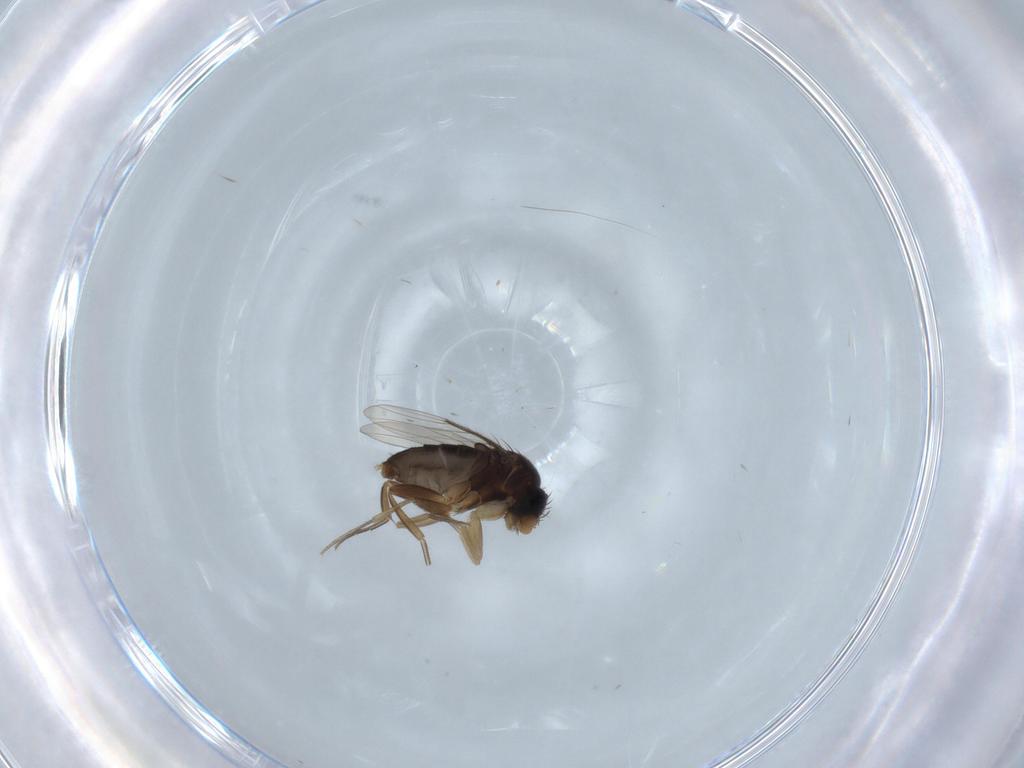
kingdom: Animalia
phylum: Arthropoda
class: Insecta
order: Diptera
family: Phoridae
